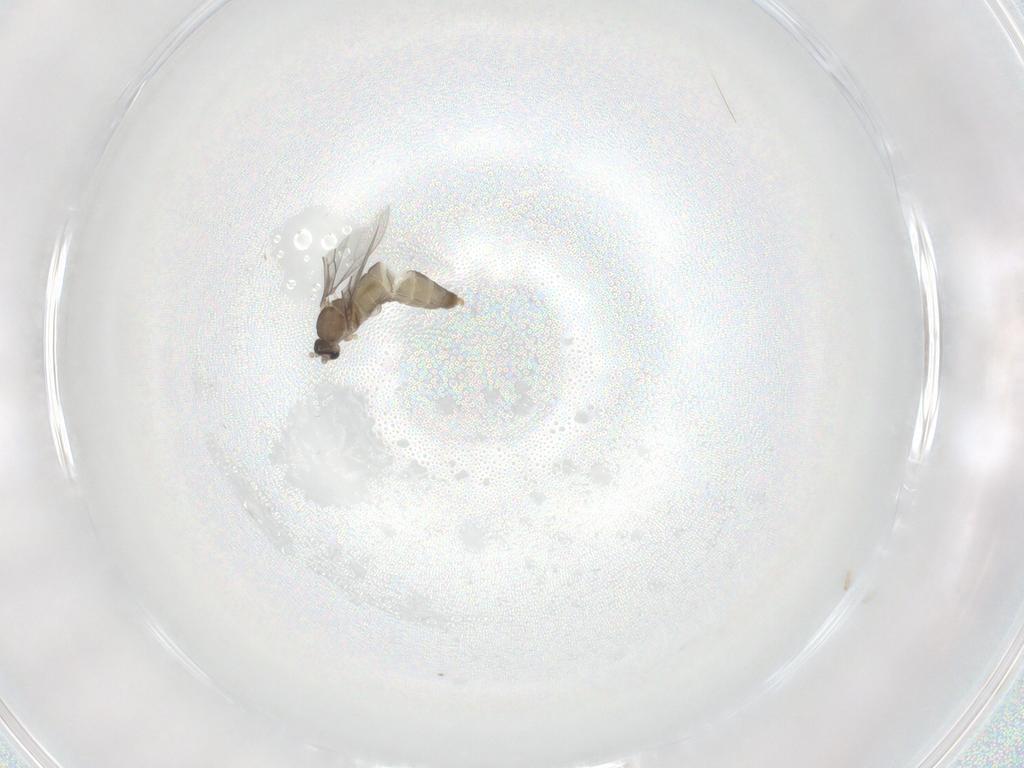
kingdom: Animalia
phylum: Arthropoda
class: Insecta
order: Diptera
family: Cecidomyiidae
